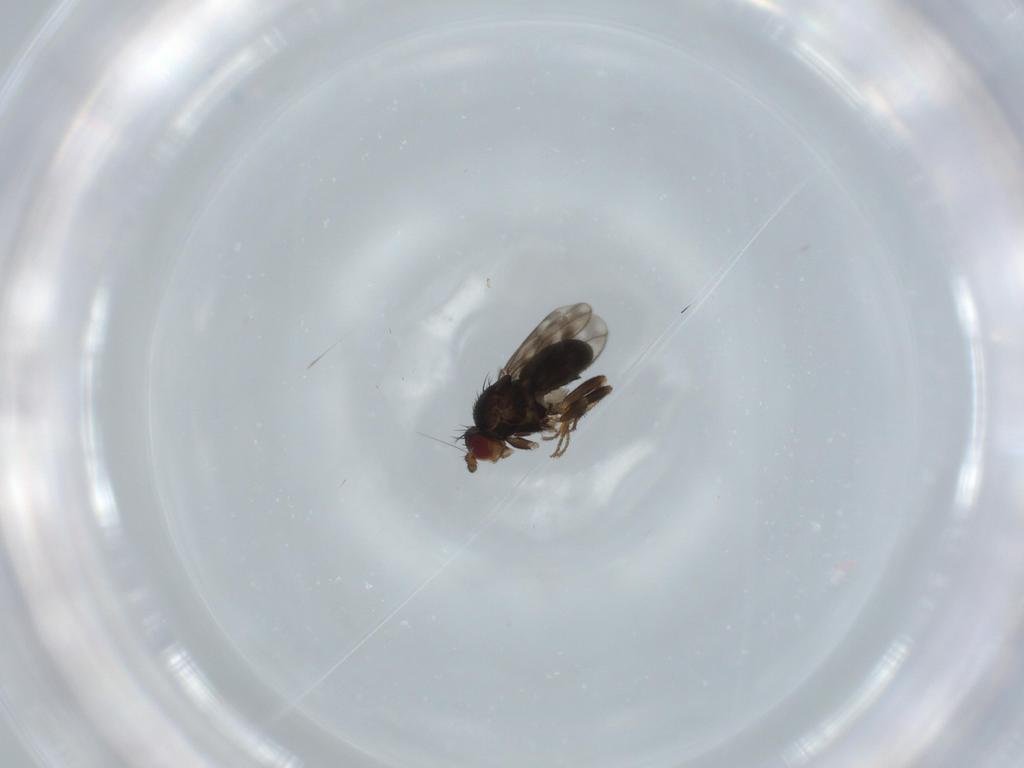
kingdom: Animalia
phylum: Arthropoda
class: Insecta
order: Diptera
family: Sphaeroceridae
